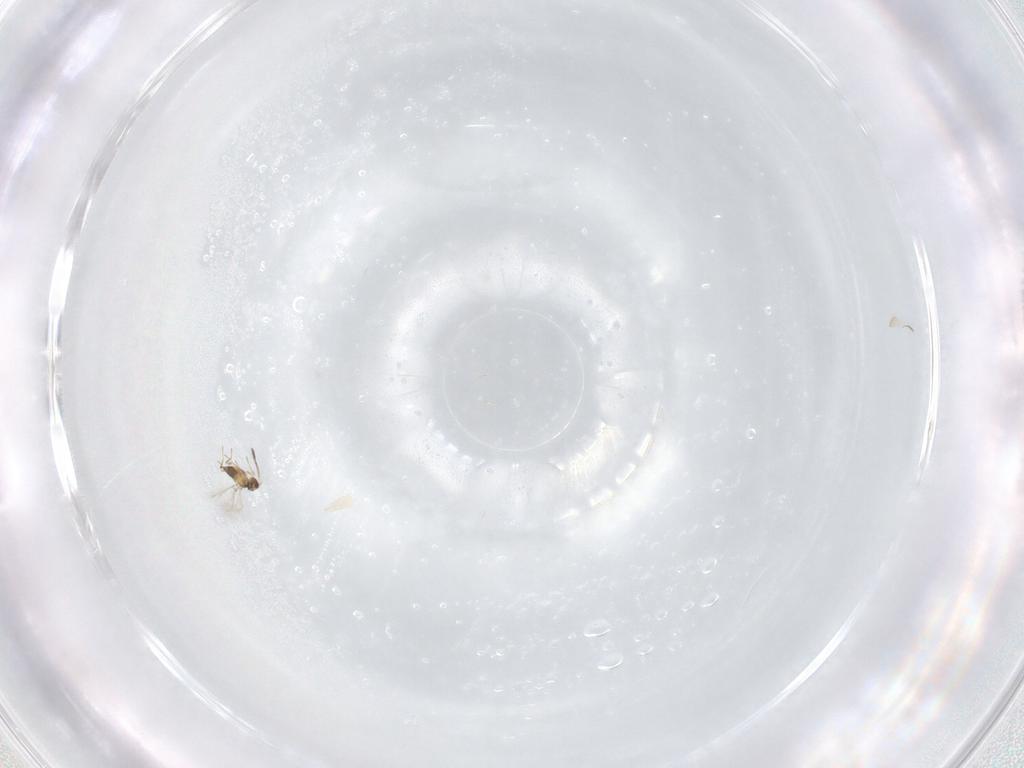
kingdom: Animalia
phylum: Arthropoda
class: Insecta
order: Hymenoptera
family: Mymaridae
